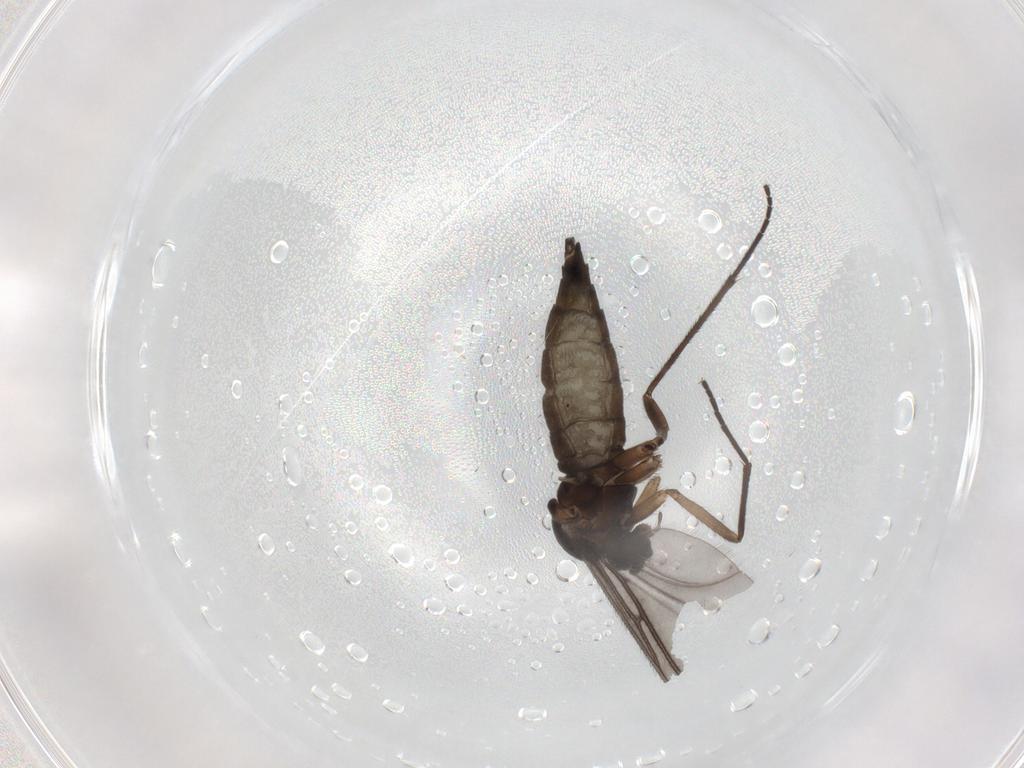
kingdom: Animalia
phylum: Arthropoda
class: Insecta
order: Diptera
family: Sciaridae
